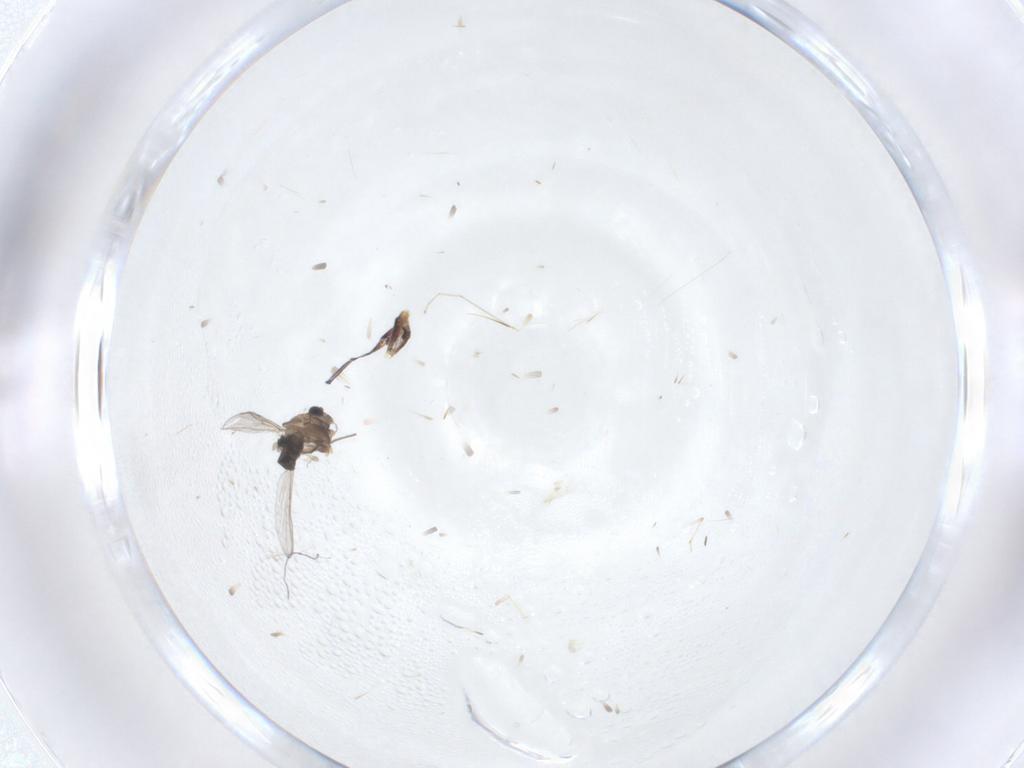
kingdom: Animalia
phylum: Arthropoda
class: Insecta
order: Diptera
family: Chironomidae
